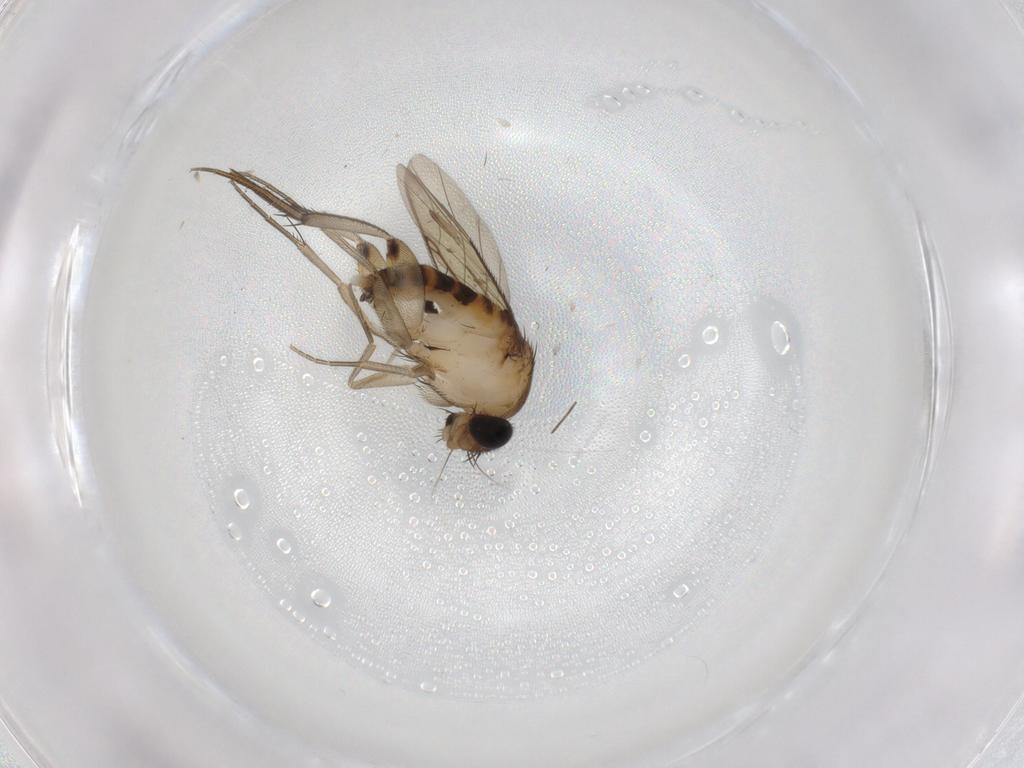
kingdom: Animalia
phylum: Arthropoda
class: Insecta
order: Diptera
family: Phoridae
